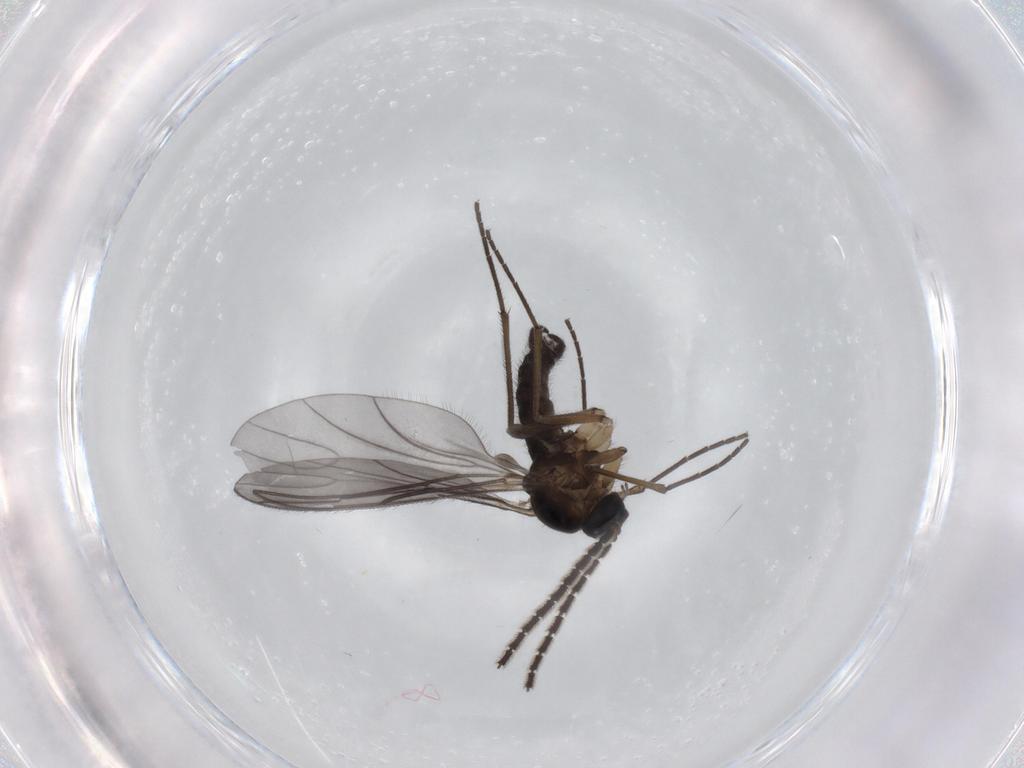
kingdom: Animalia
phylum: Arthropoda
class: Insecta
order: Diptera
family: Sciaridae
